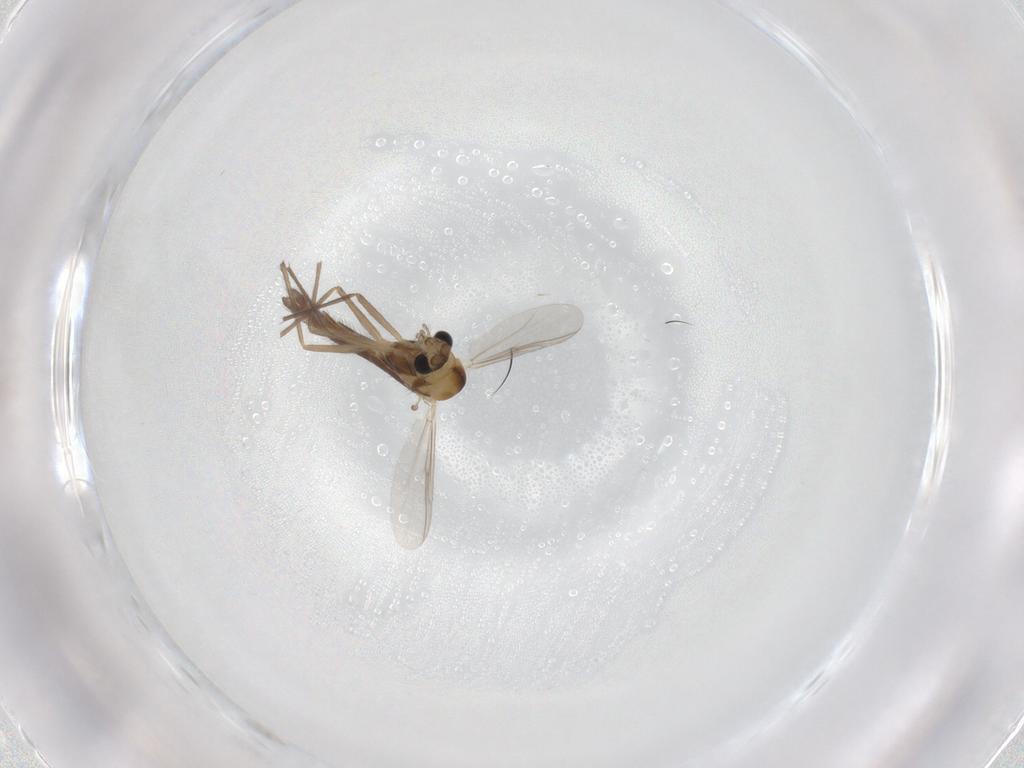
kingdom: Animalia
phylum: Arthropoda
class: Insecta
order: Diptera
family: Chironomidae
